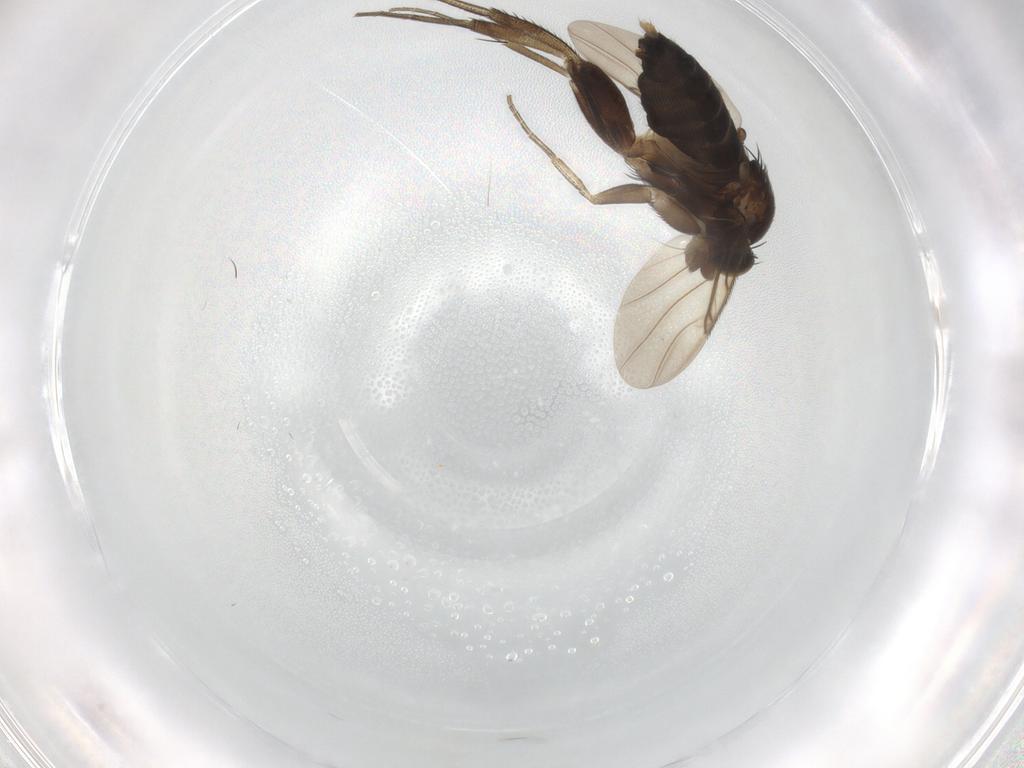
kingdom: Animalia
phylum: Arthropoda
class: Insecta
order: Diptera
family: Phoridae
